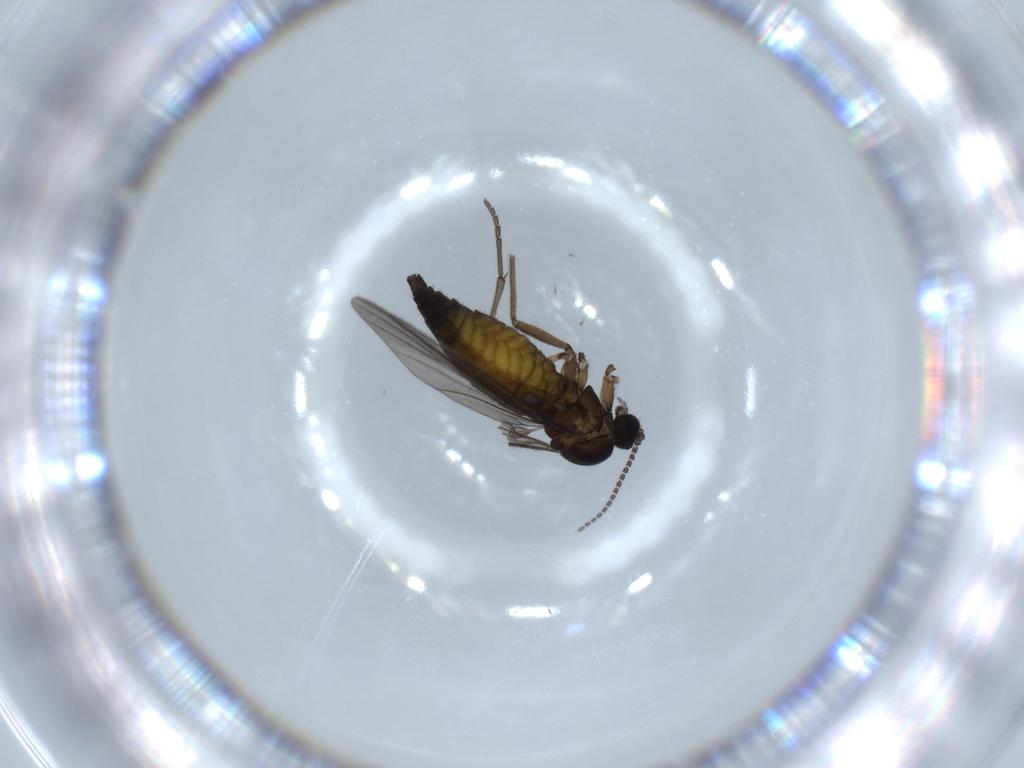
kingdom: Animalia
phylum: Arthropoda
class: Insecta
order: Diptera
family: Sciaridae
